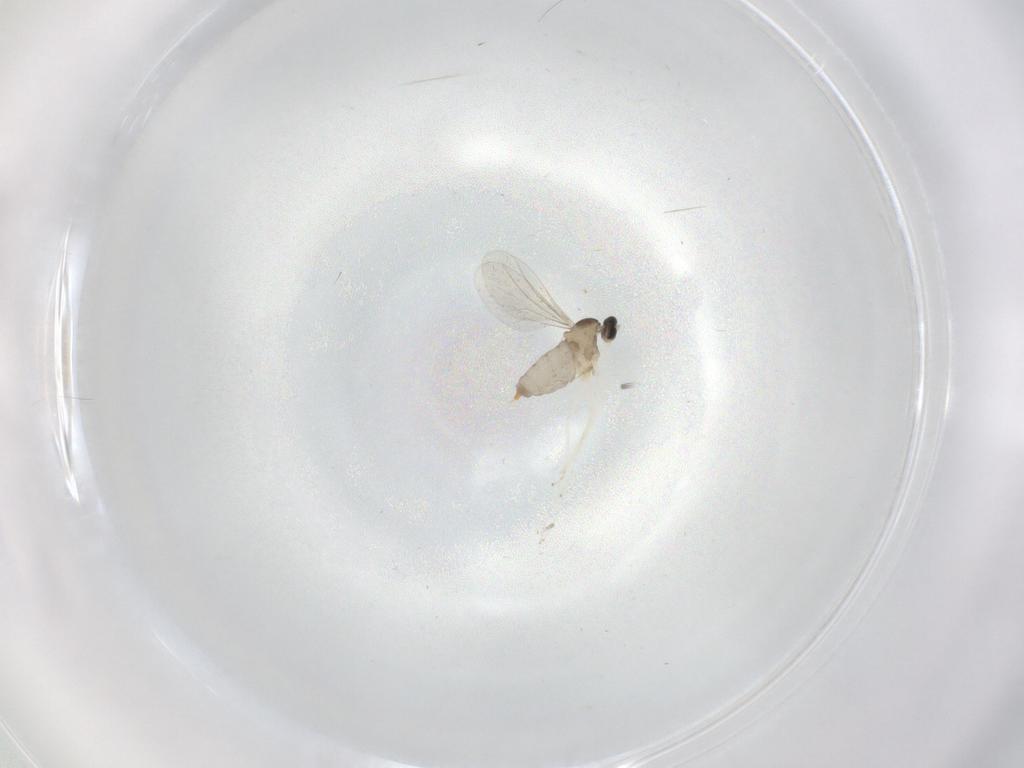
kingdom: Animalia
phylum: Arthropoda
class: Insecta
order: Diptera
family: Cecidomyiidae
